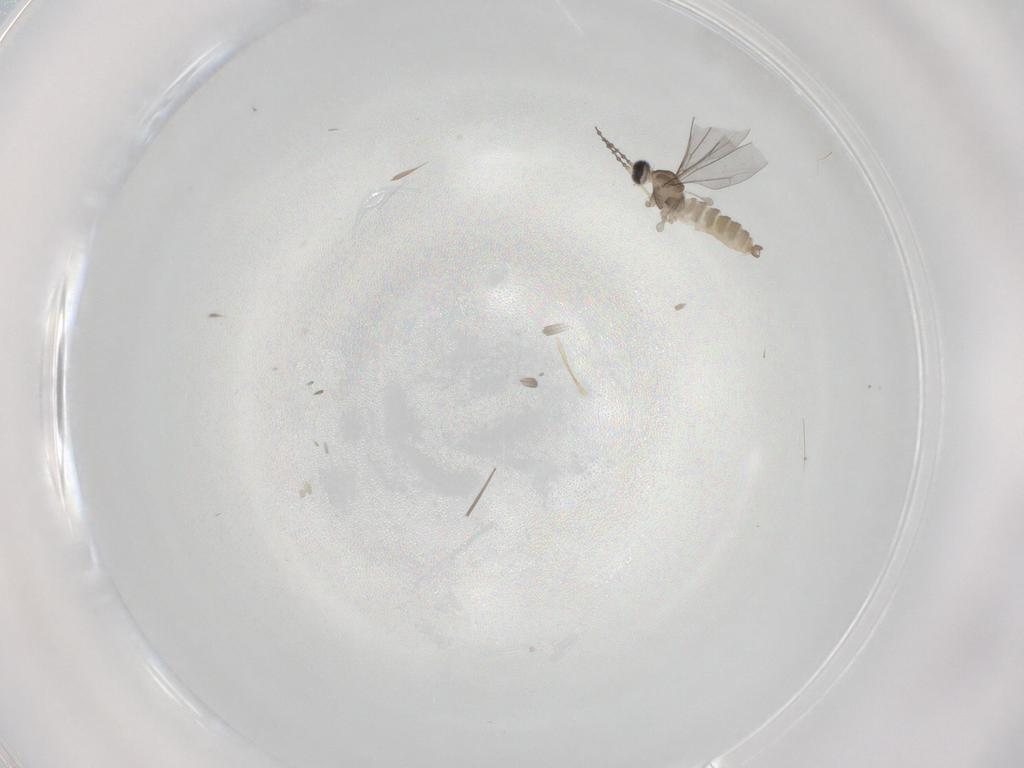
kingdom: Animalia
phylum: Arthropoda
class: Insecta
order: Diptera
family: Cecidomyiidae
